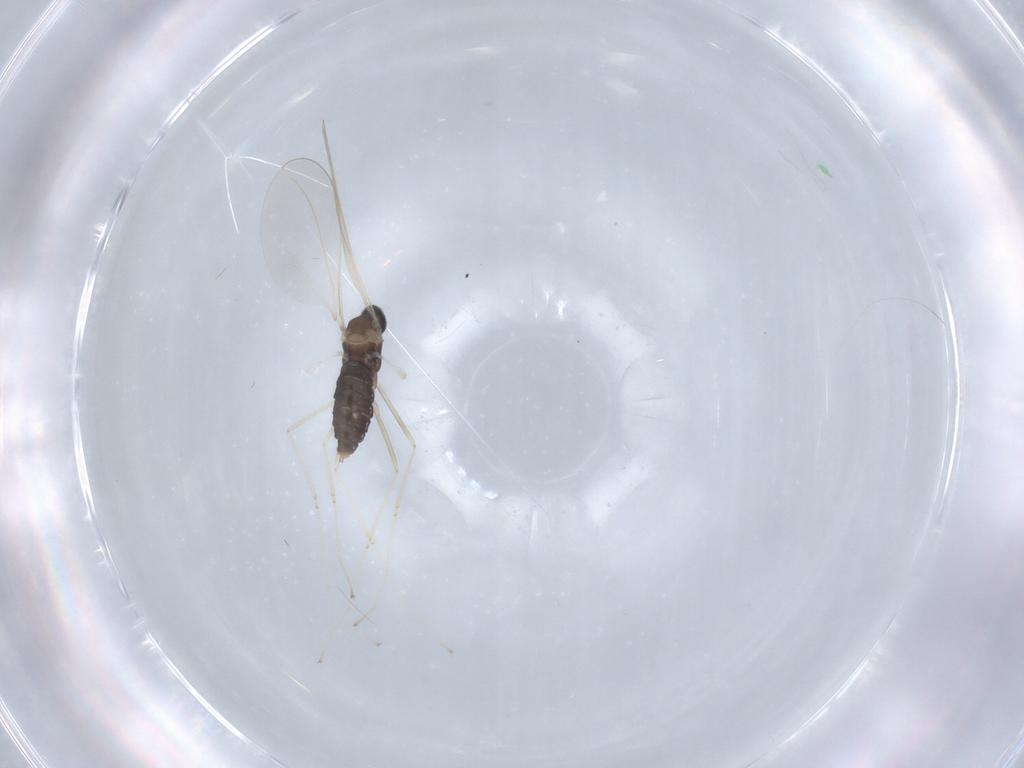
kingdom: Animalia
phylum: Arthropoda
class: Insecta
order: Diptera
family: Cecidomyiidae
